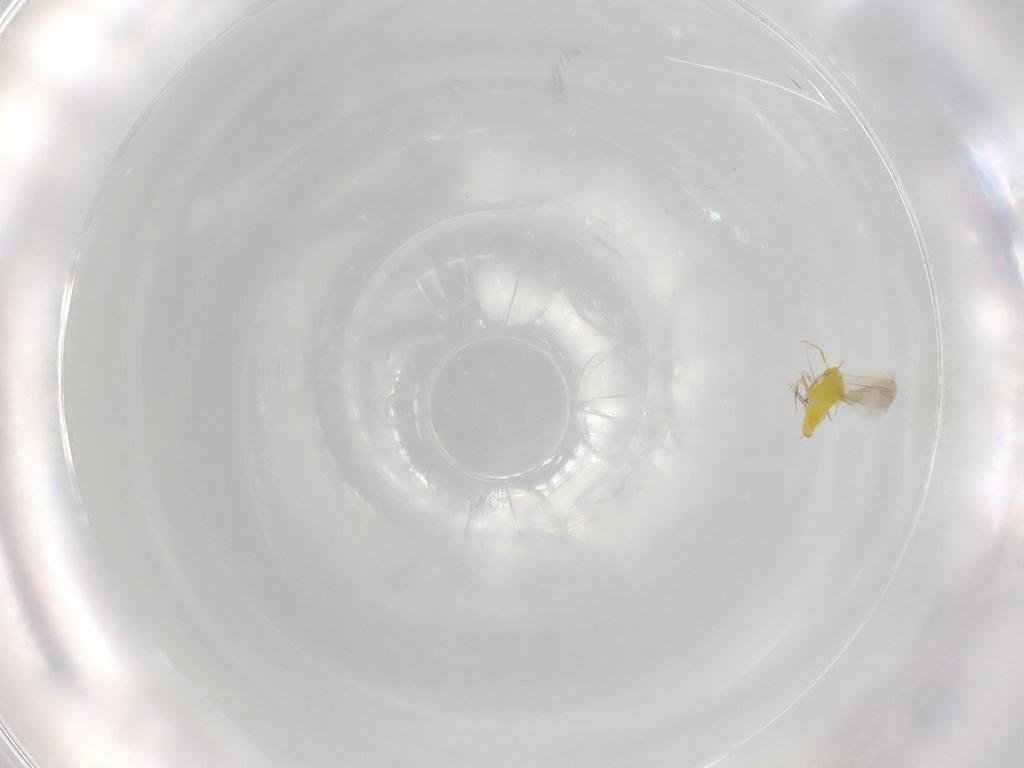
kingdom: Animalia
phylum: Arthropoda
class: Insecta
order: Hemiptera
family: Aleyrodidae
